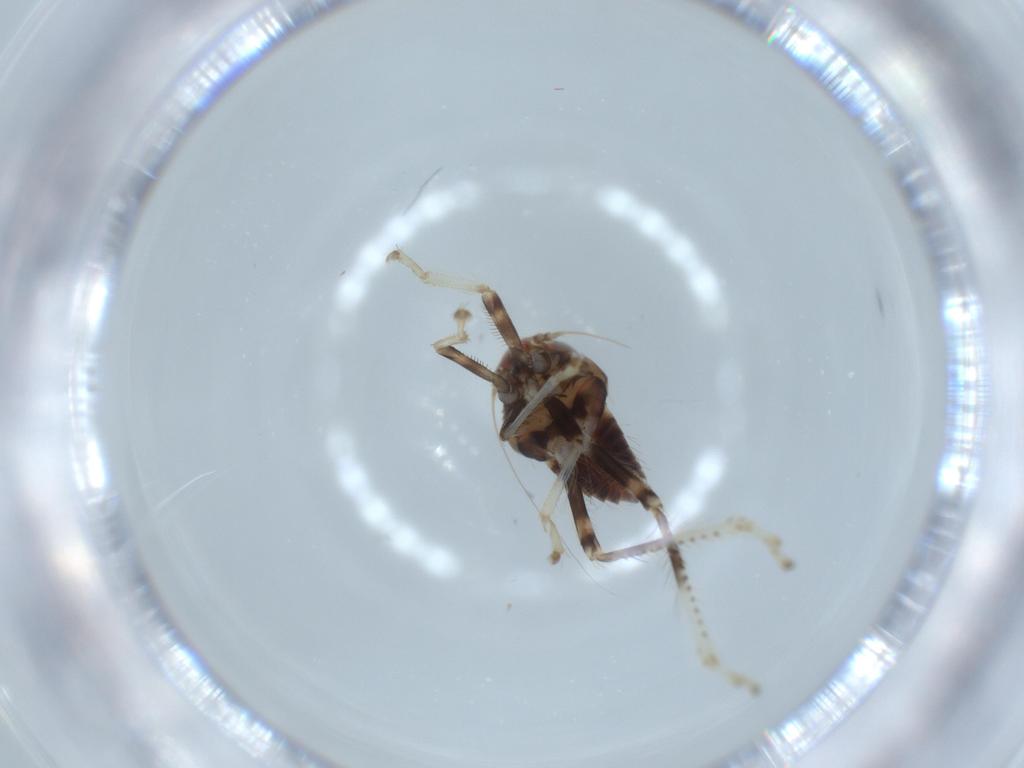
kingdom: Animalia
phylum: Arthropoda
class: Insecta
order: Hemiptera
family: Cicadellidae
